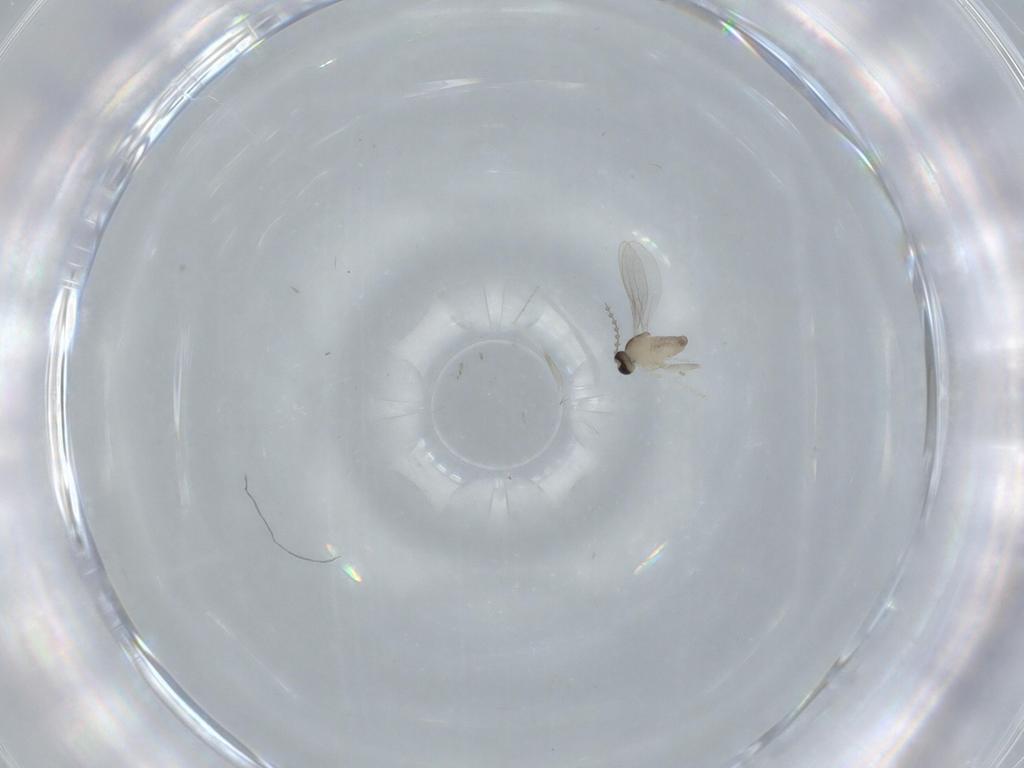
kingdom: Animalia
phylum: Arthropoda
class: Insecta
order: Diptera
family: Cecidomyiidae
